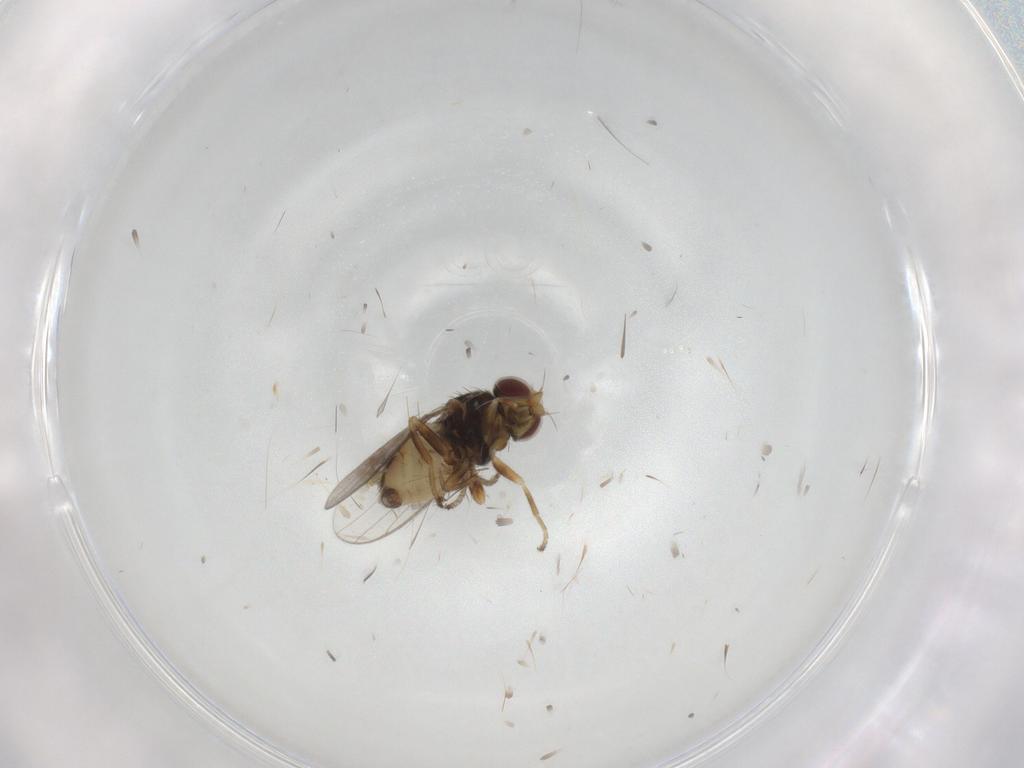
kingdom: Animalia
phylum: Arthropoda
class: Insecta
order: Diptera
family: Chloropidae
